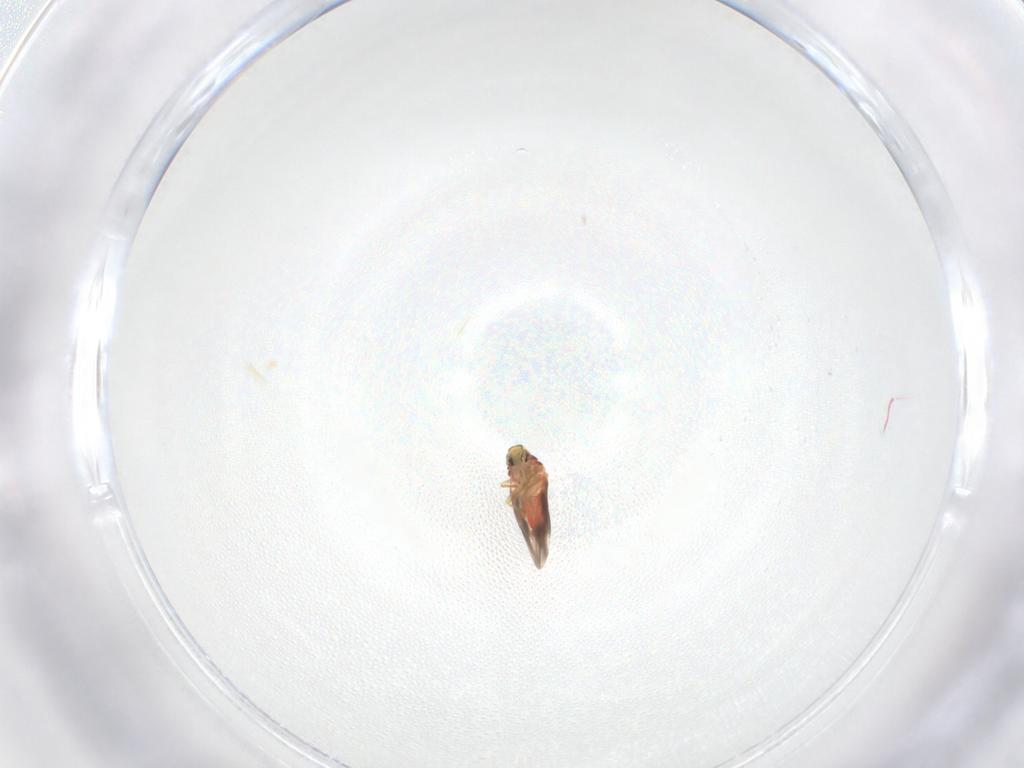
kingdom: Animalia
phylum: Arthropoda
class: Insecta
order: Hemiptera
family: Aleyrodidae
